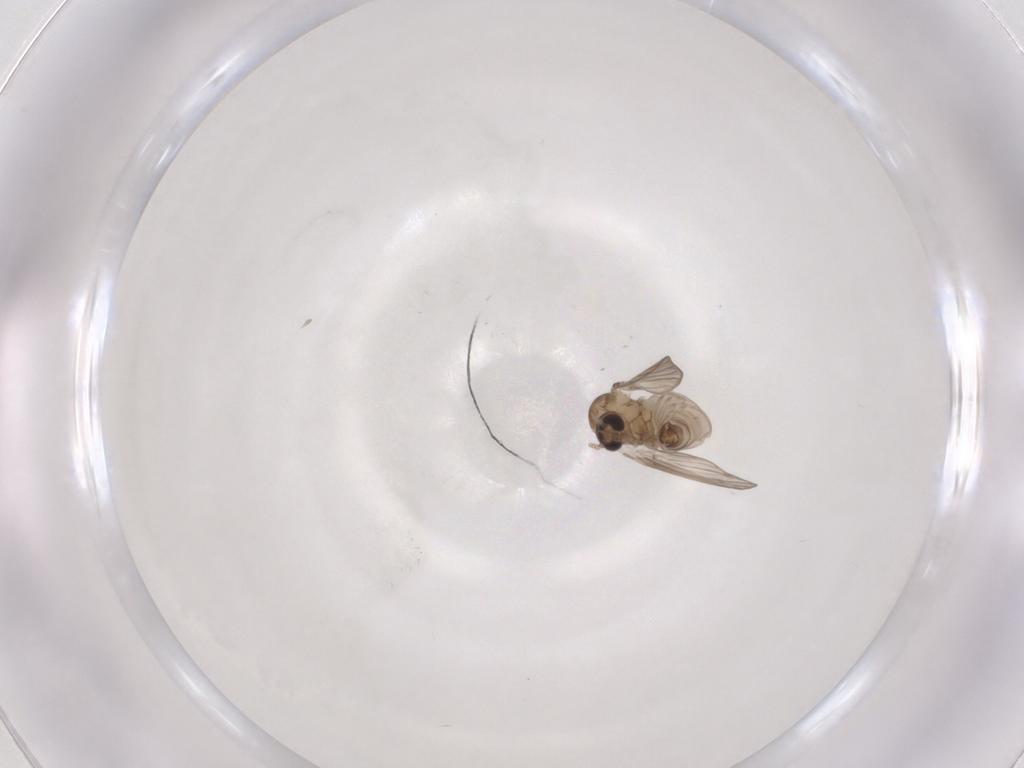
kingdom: Animalia
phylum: Arthropoda
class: Insecta
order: Diptera
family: Psychodidae
